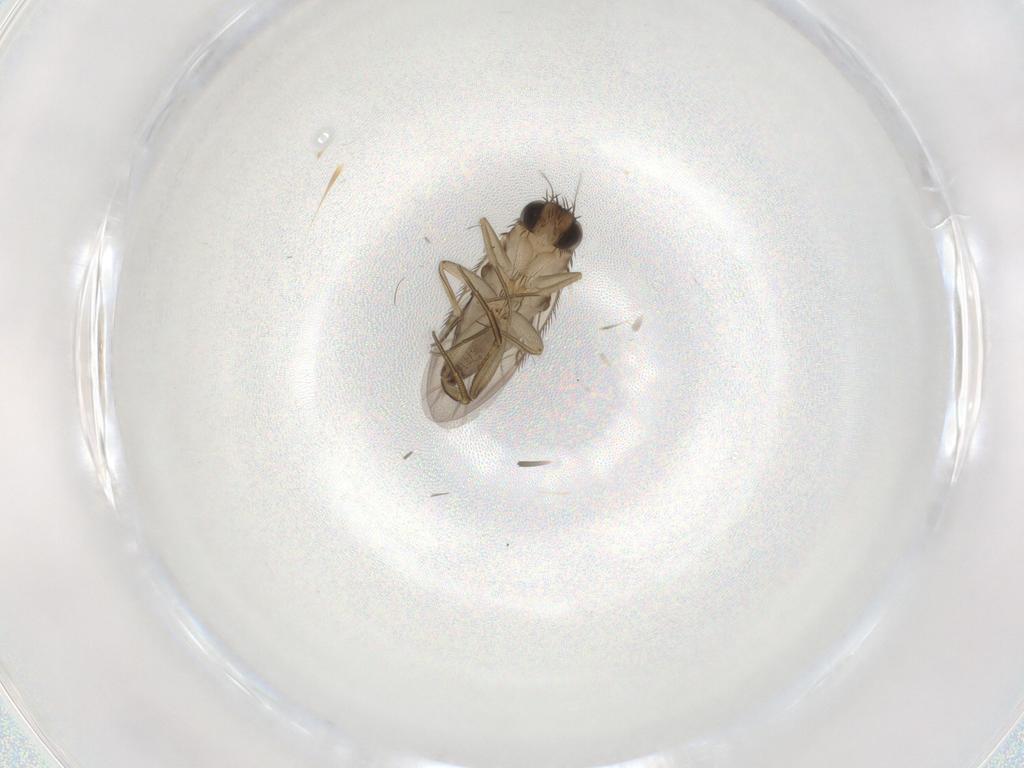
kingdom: Animalia
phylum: Arthropoda
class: Insecta
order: Diptera
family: Phoridae
